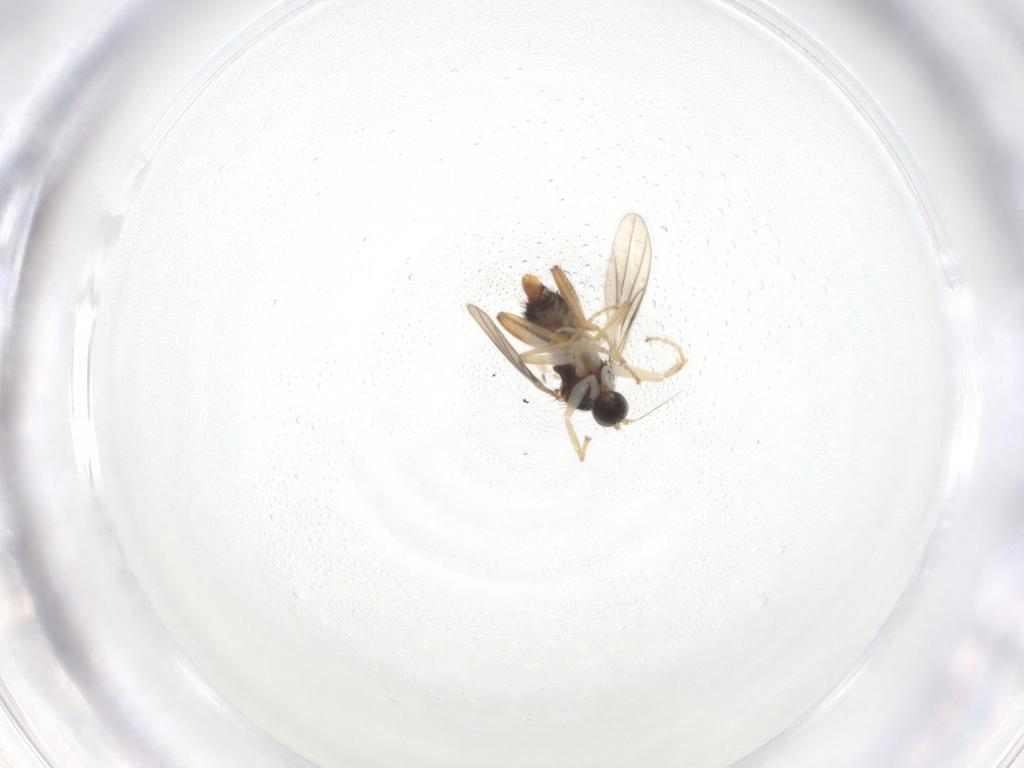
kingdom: Animalia
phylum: Arthropoda
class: Insecta
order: Diptera
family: Hybotidae
